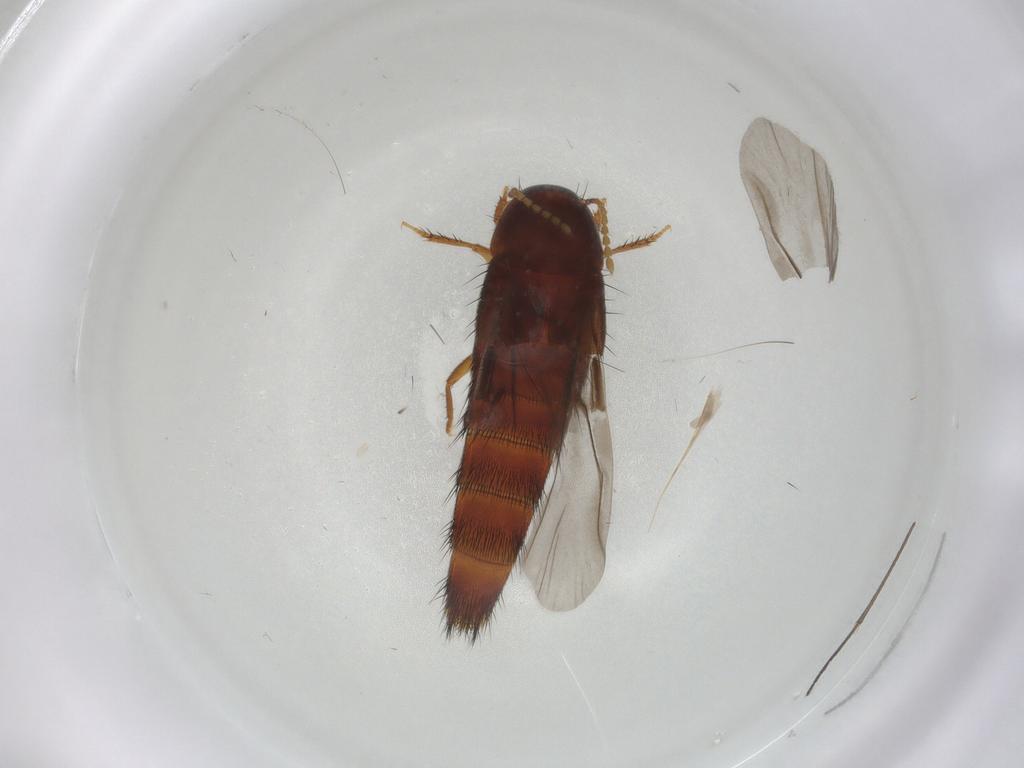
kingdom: Animalia
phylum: Arthropoda
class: Insecta
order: Coleoptera
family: Staphylinidae
